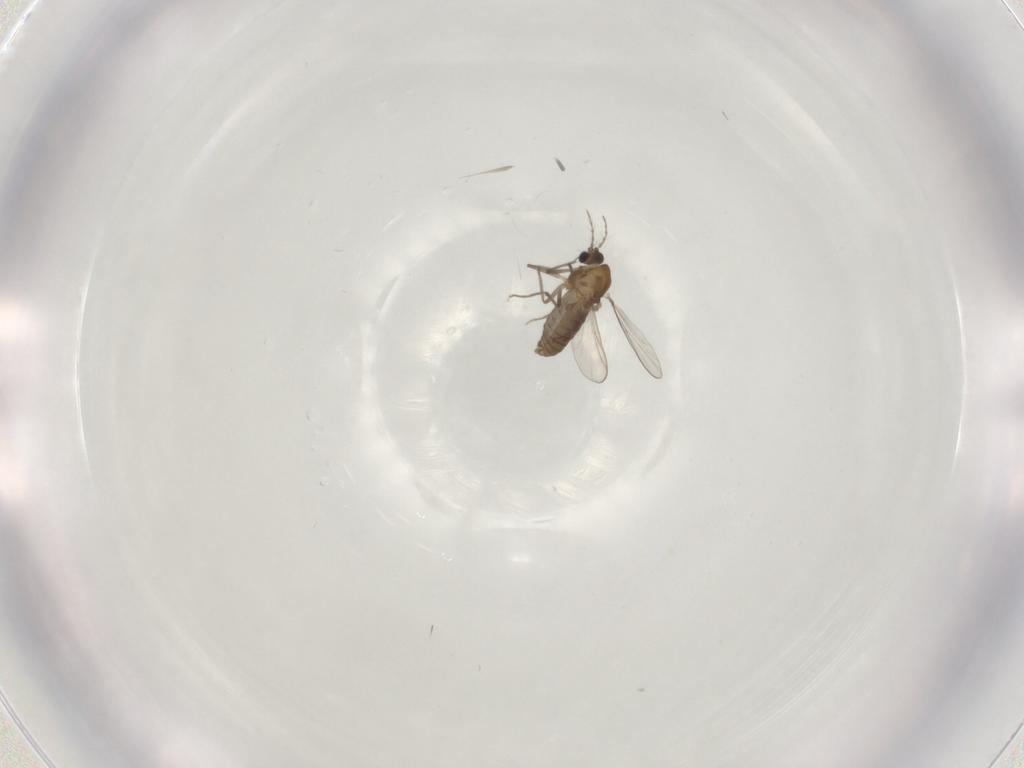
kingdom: Animalia
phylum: Arthropoda
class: Insecta
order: Diptera
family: Chironomidae
